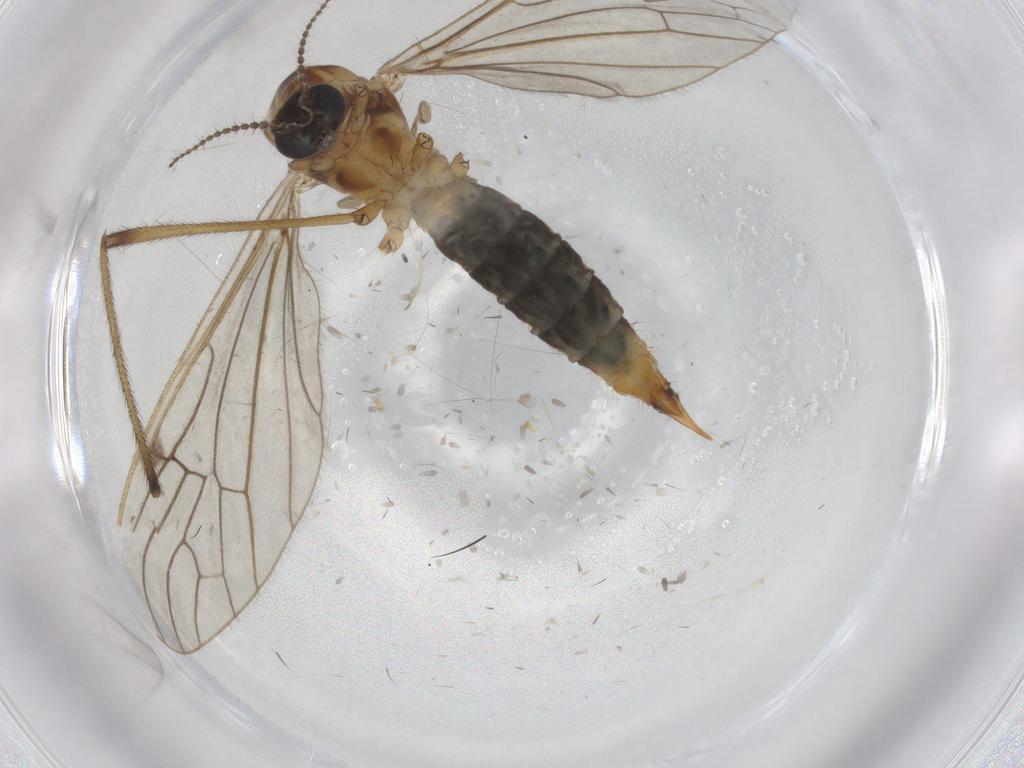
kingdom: Animalia
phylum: Arthropoda
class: Insecta
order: Diptera
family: Limoniidae
